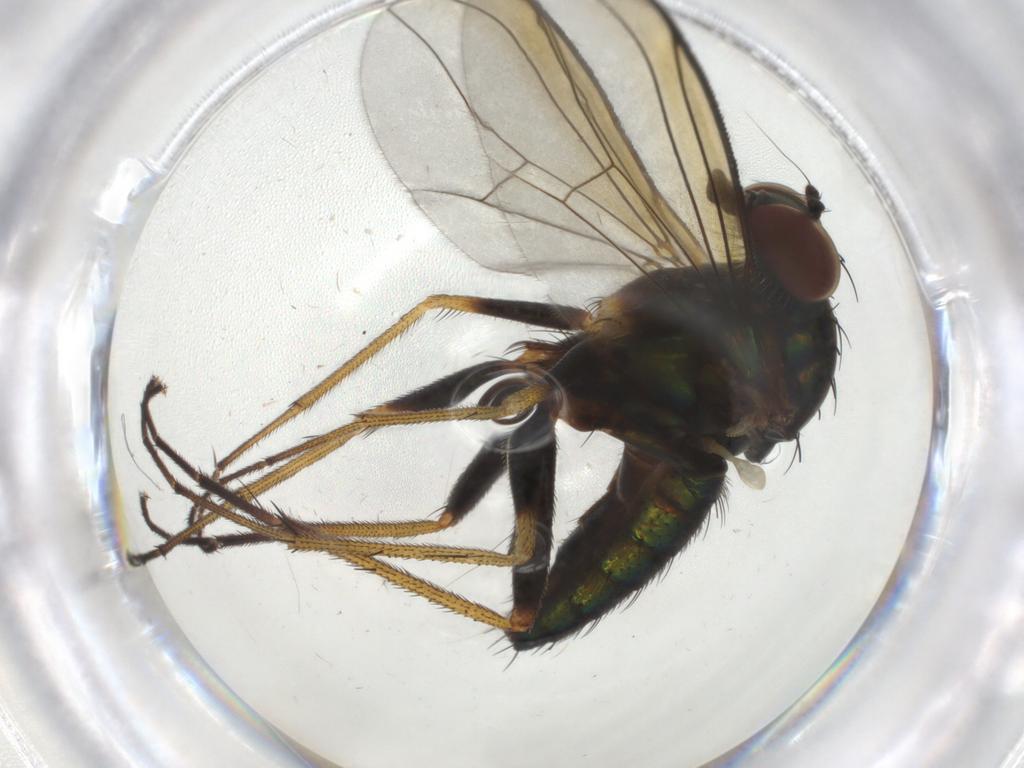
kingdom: Animalia
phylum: Arthropoda
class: Insecta
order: Diptera
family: Dolichopodidae
